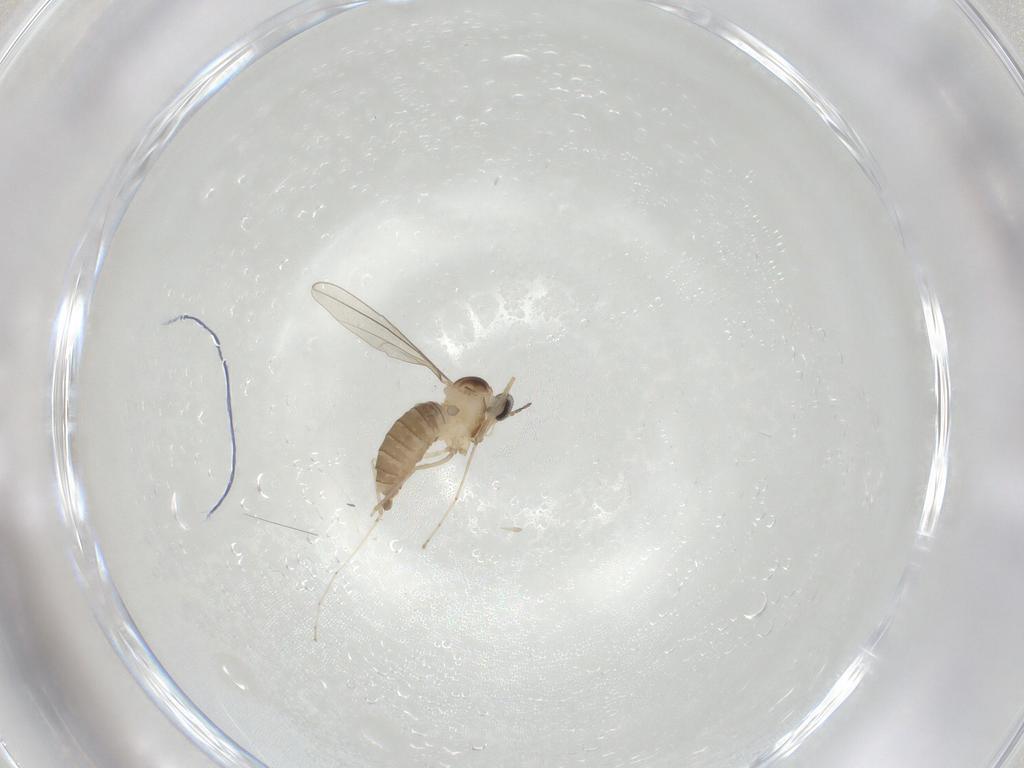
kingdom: Animalia
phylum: Arthropoda
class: Insecta
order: Diptera
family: Cecidomyiidae
